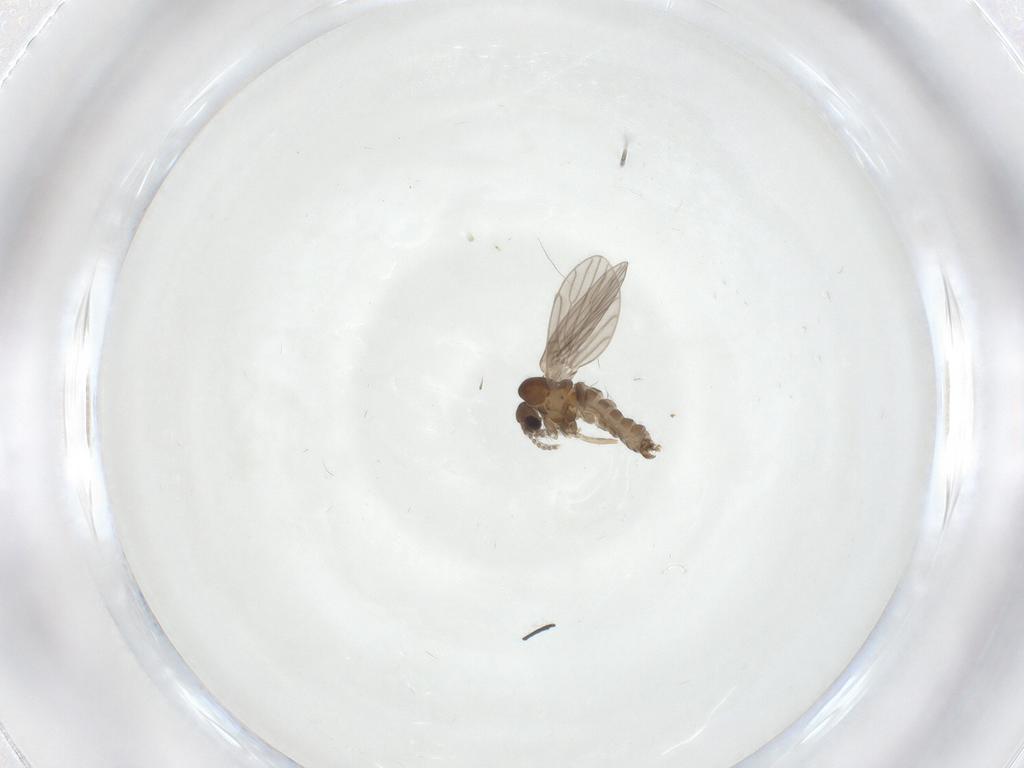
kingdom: Animalia
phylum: Arthropoda
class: Insecta
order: Diptera
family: Psychodidae
